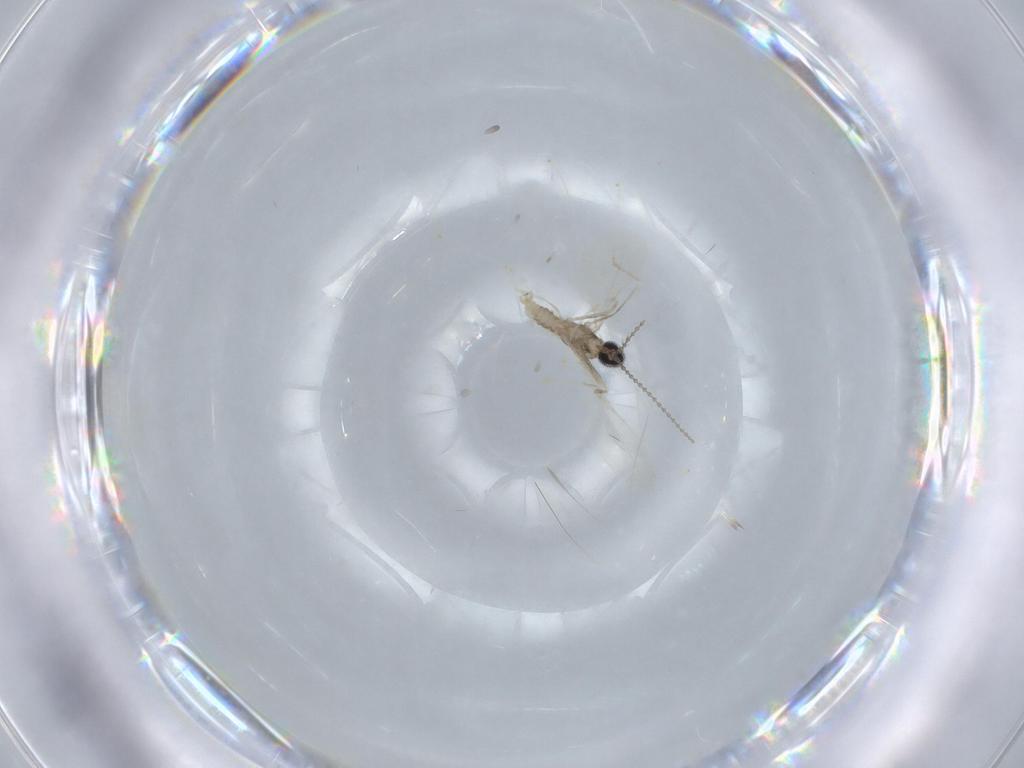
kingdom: Animalia
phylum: Arthropoda
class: Insecta
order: Diptera
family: Cecidomyiidae
